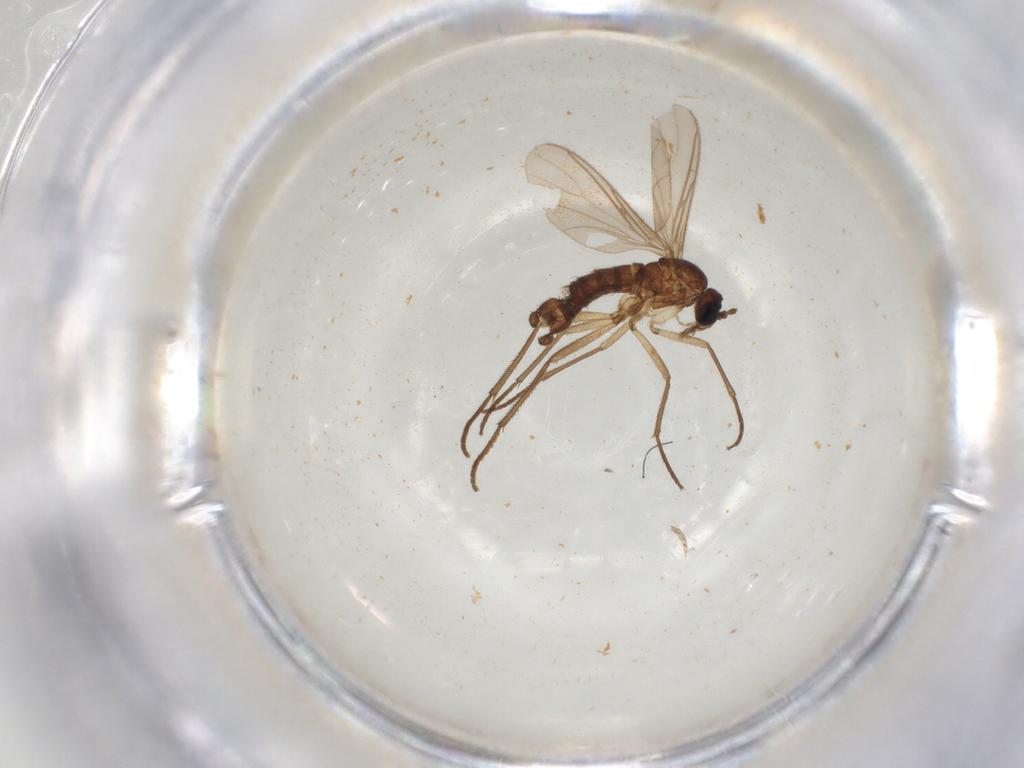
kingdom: Animalia
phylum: Arthropoda
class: Insecta
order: Diptera
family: Sciaridae
